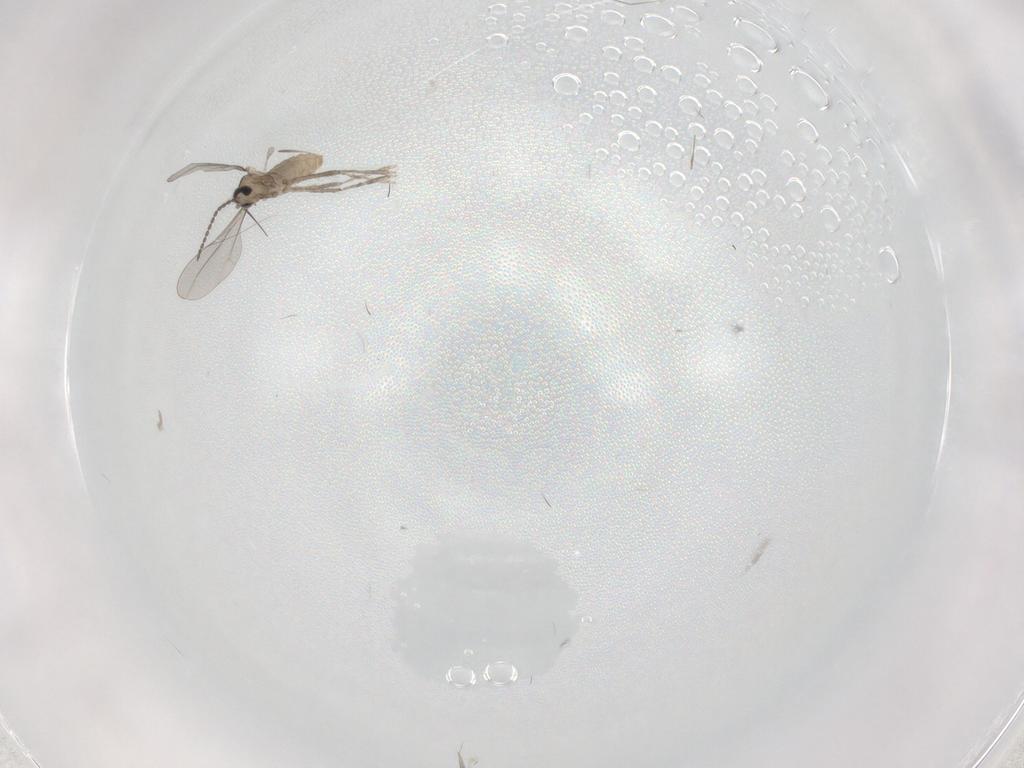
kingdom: Animalia
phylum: Arthropoda
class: Insecta
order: Diptera
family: Cecidomyiidae
